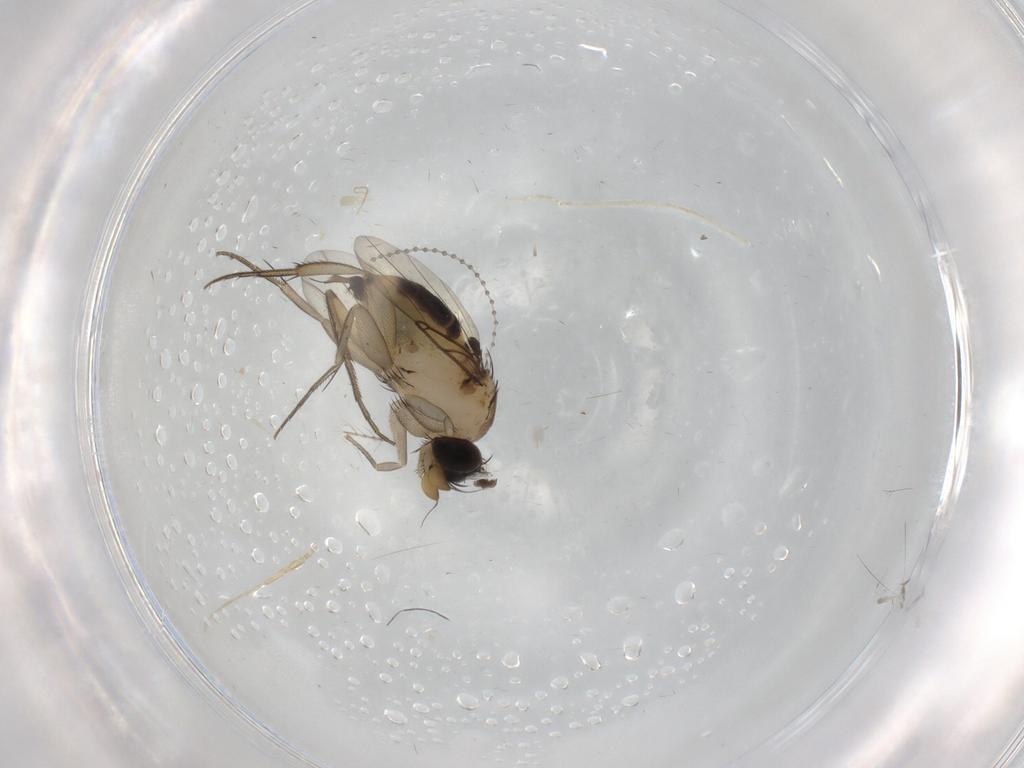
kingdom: Animalia
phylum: Arthropoda
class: Insecta
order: Diptera
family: Phoridae
